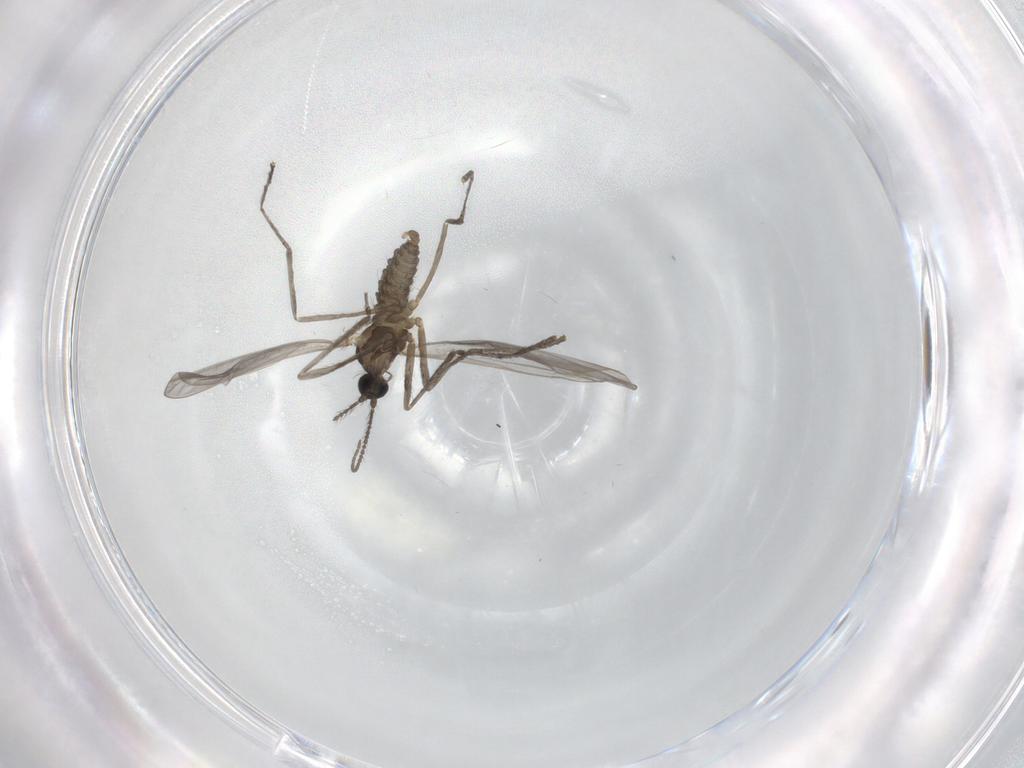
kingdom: Animalia
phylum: Arthropoda
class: Insecta
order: Diptera
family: Cecidomyiidae
